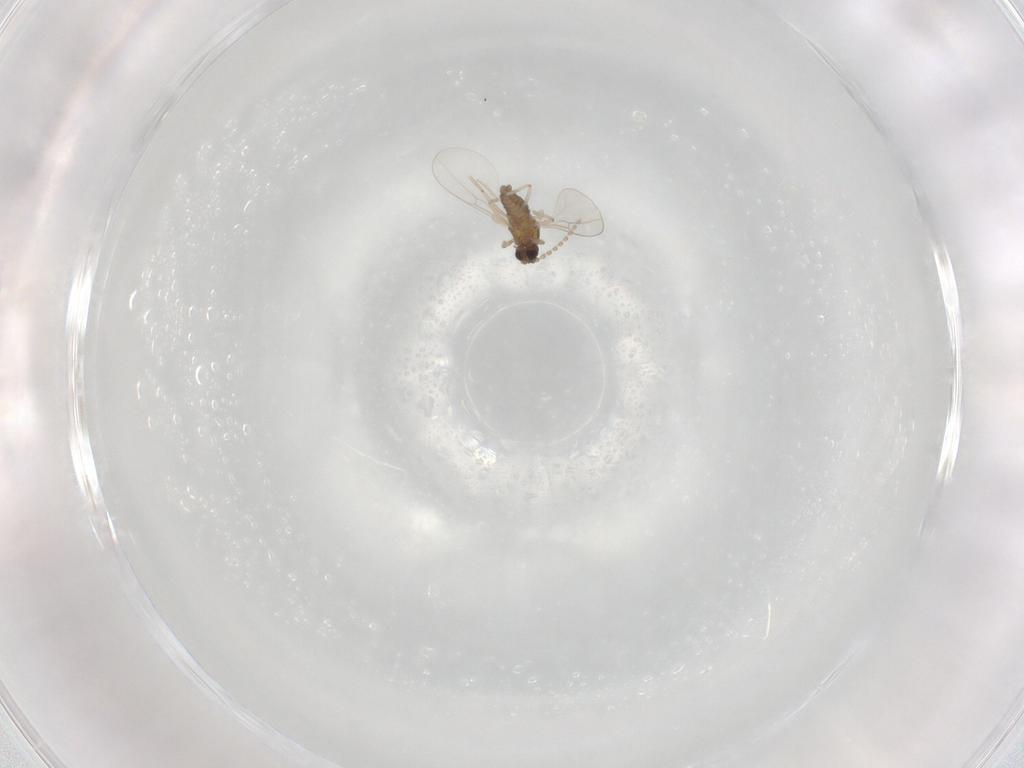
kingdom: Animalia
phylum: Arthropoda
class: Insecta
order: Diptera
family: Cecidomyiidae
